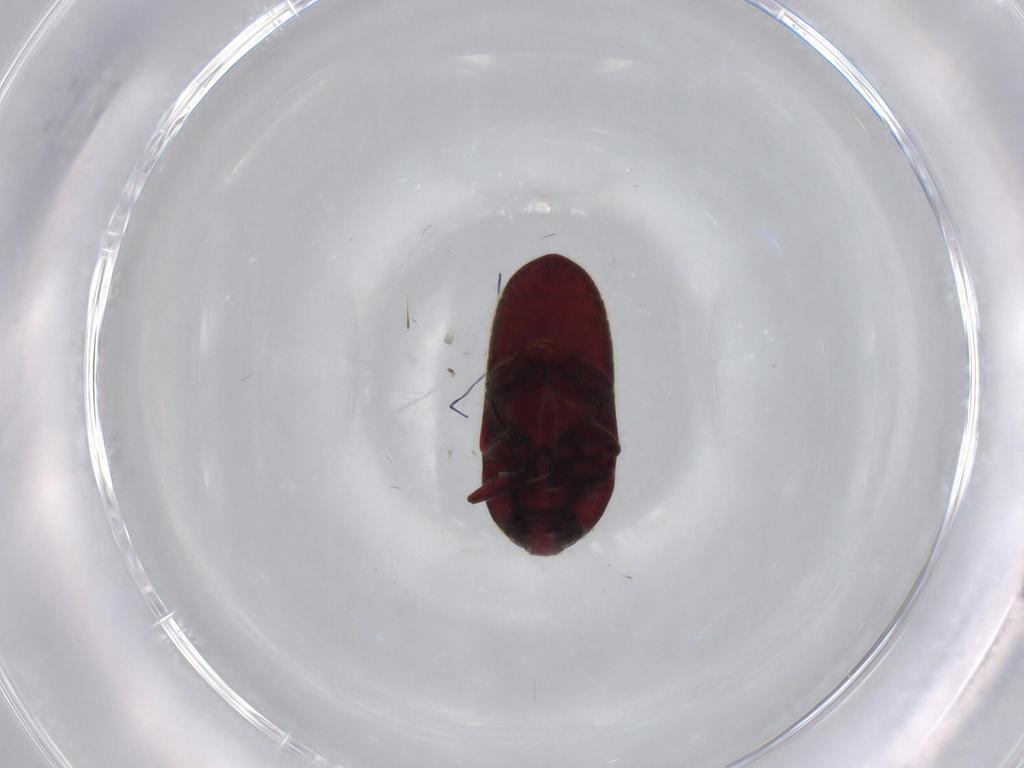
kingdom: Animalia
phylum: Arthropoda
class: Insecta
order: Coleoptera
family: Throscidae
